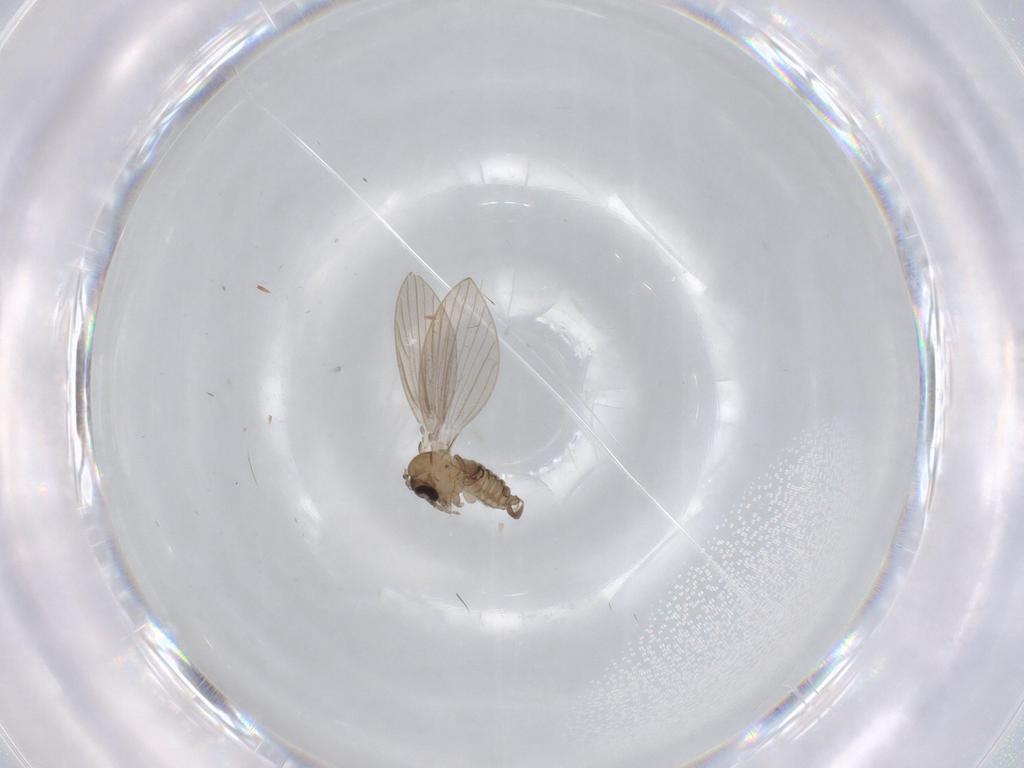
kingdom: Animalia
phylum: Arthropoda
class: Insecta
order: Diptera
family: Psychodidae
